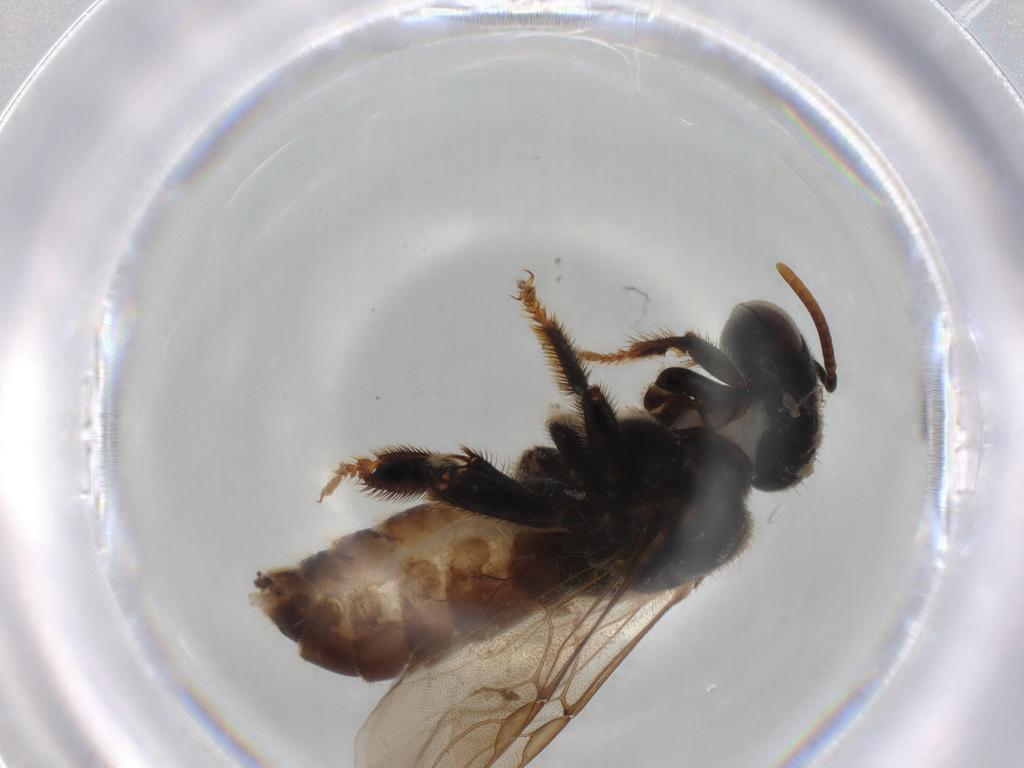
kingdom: Animalia
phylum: Arthropoda
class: Insecta
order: Hymenoptera
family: Apidae
